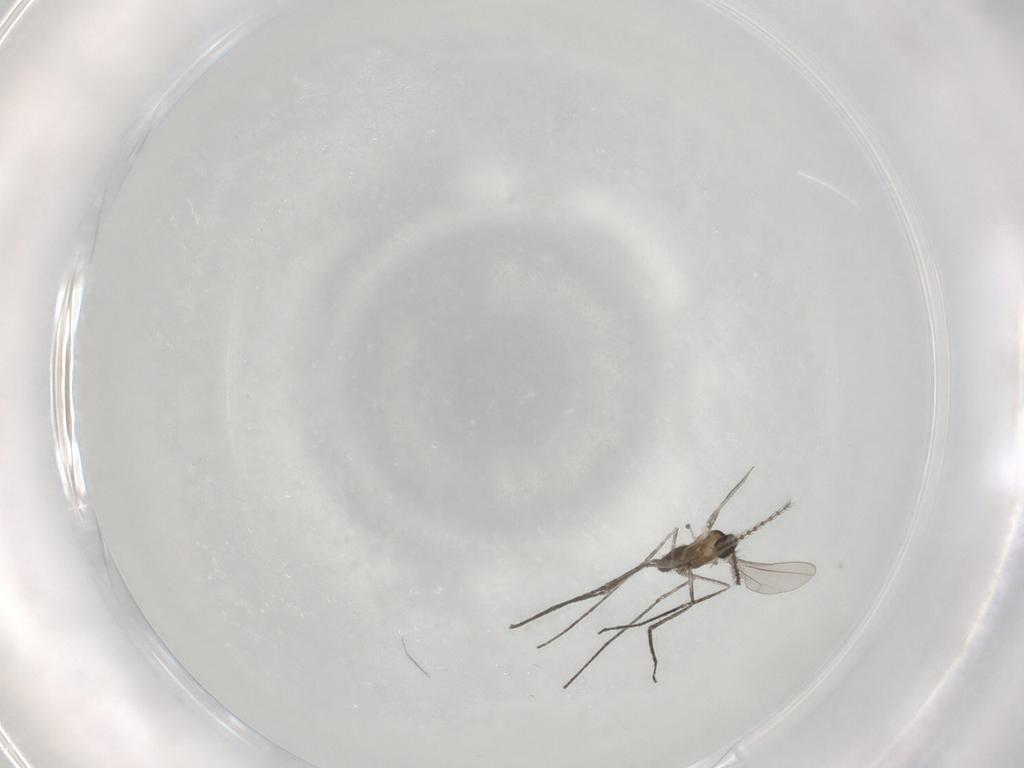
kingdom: Animalia
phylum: Arthropoda
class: Insecta
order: Diptera
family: Cecidomyiidae
